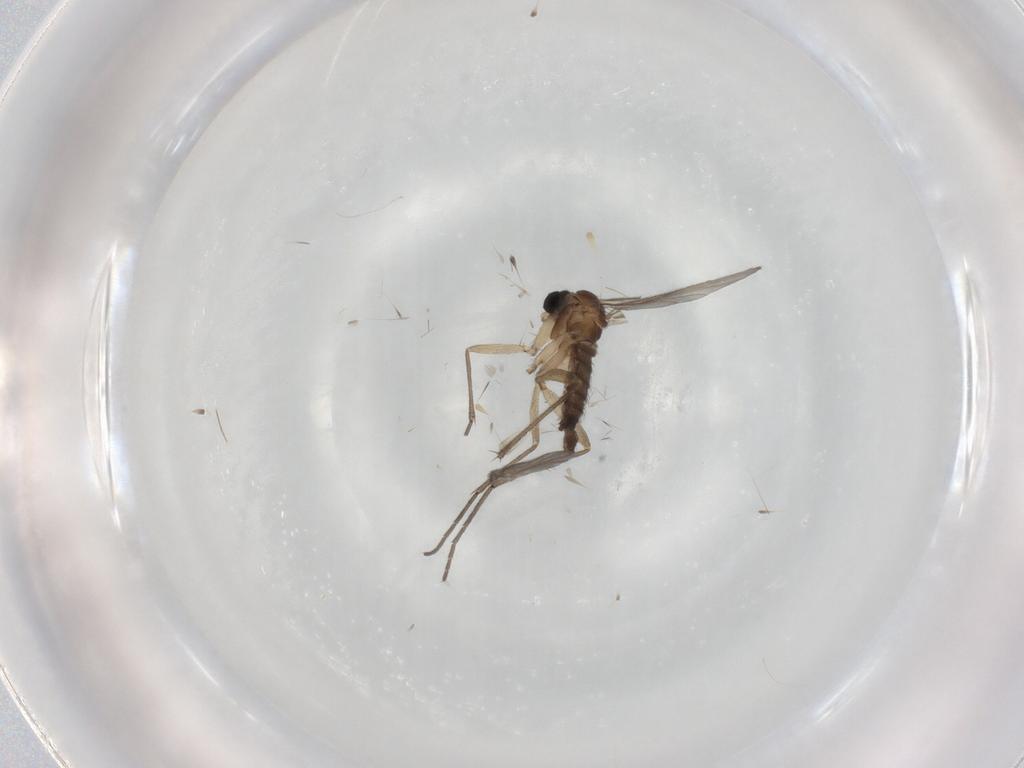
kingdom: Animalia
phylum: Arthropoda
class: Insecta
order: Diptera
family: Sciaridae
